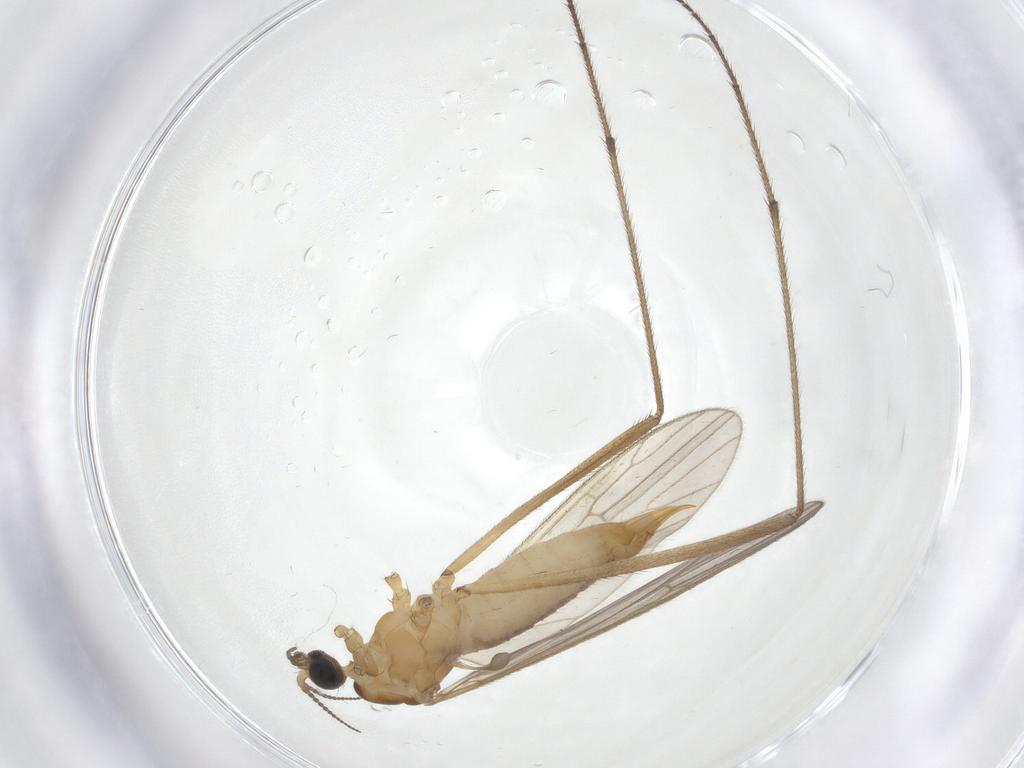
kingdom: Animalia
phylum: Arthropoda
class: Insecta
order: Diptera
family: Limoniidae
